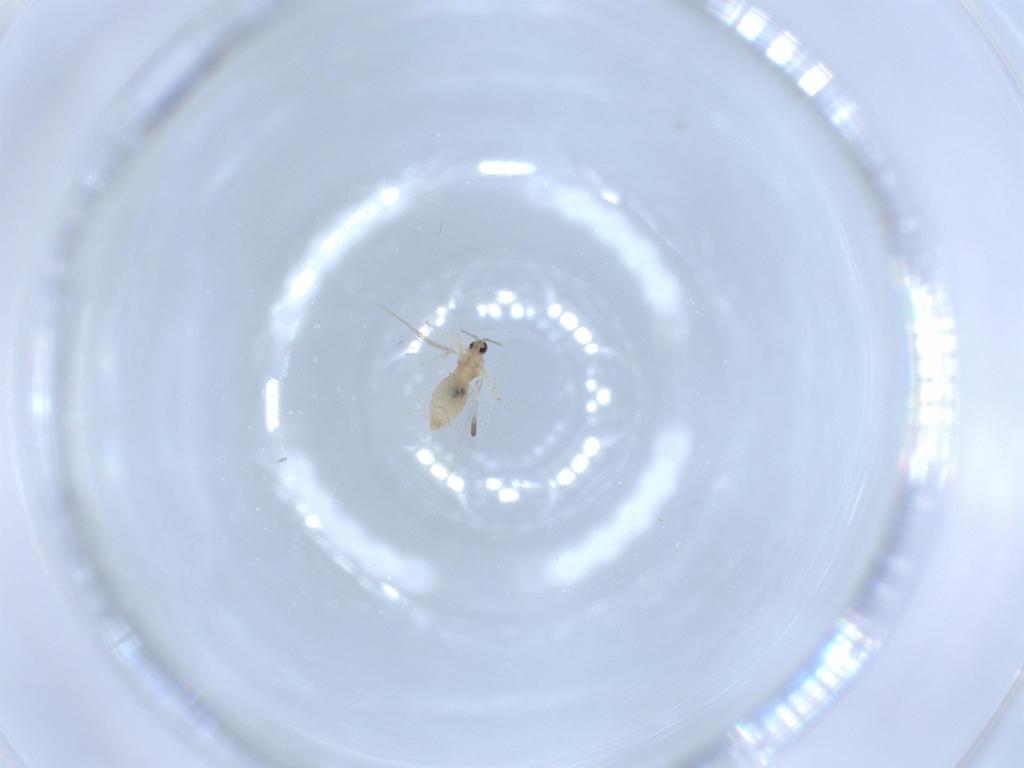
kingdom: Animalia
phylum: Arthropoda
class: Insecta
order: Diptera
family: Cecidomyiidae
